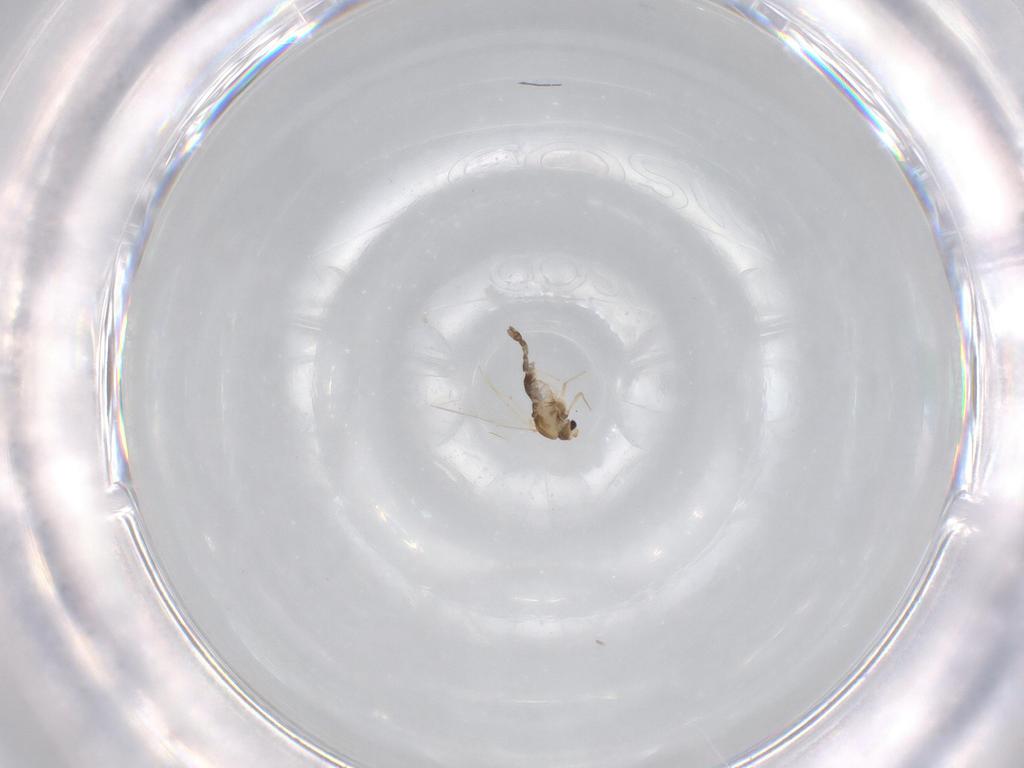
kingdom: Animalia
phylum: Arthropoda
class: Insecta
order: Diptera
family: Chironomidae
